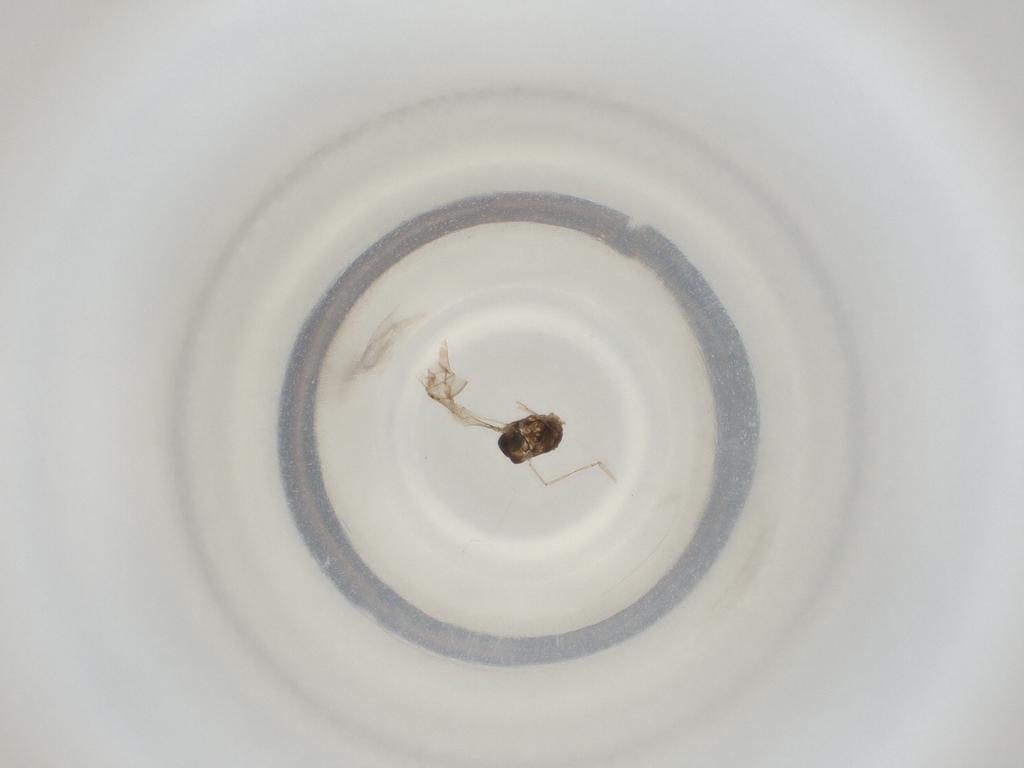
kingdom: Animalia
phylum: Arthropoda
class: Insecta
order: Diptera
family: Cecidomyiidae
